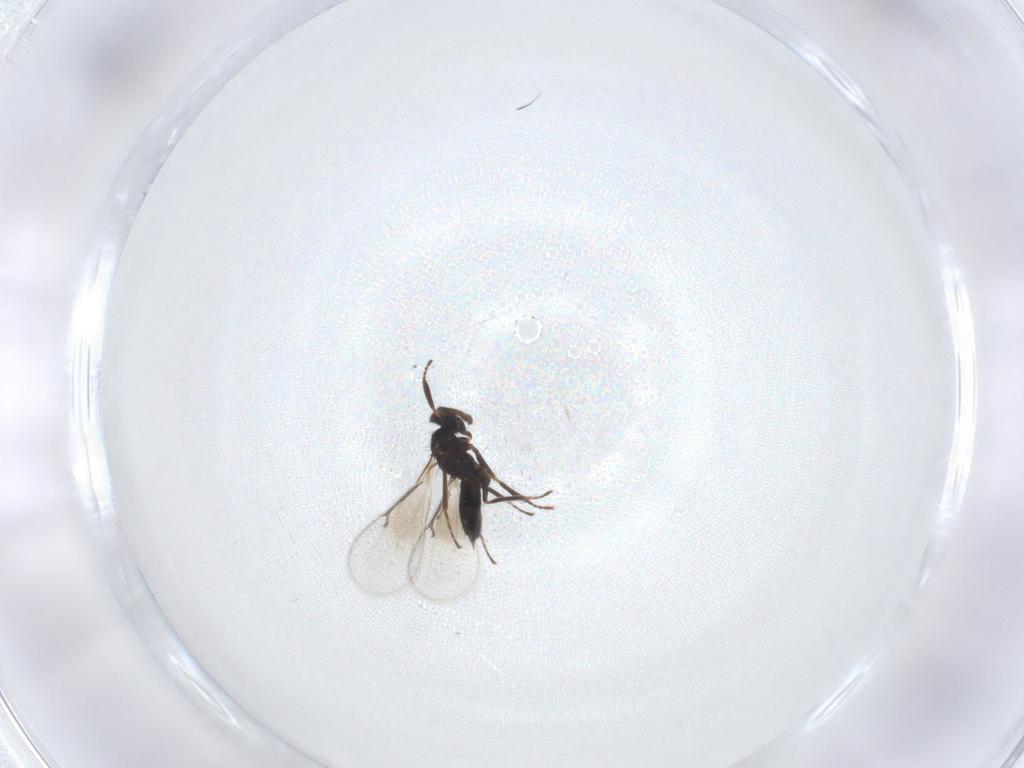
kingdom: Animalia
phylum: Arthropoda
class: Insecta
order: Hymenoptera
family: Eulophidae
